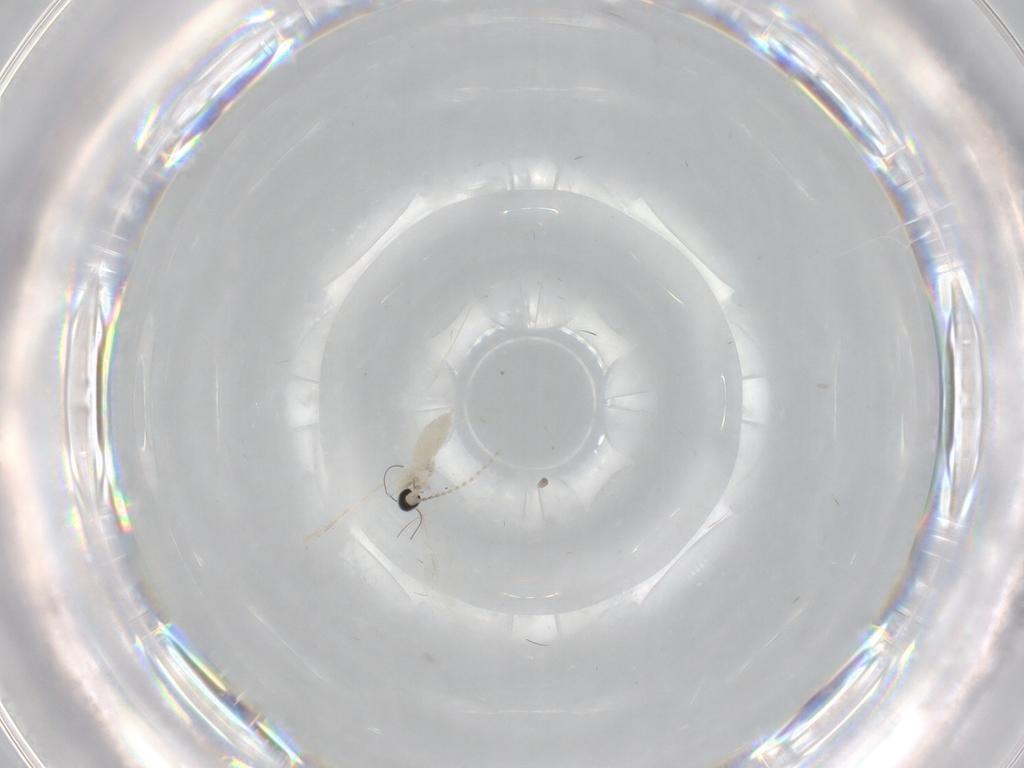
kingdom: Animalia
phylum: Arthropoda
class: Insecta
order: Diptera
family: Cecidomyiidae
